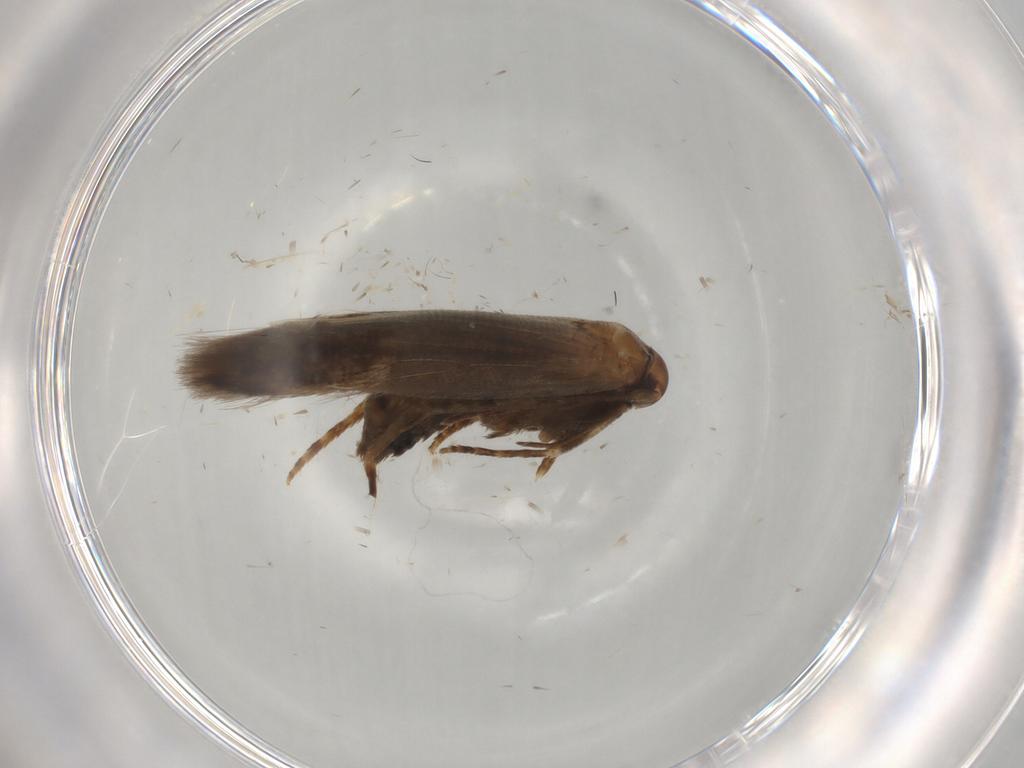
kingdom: Animalia
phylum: Arthropoda
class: Insecta
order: Lepidoptera
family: Cosmopterigidae
